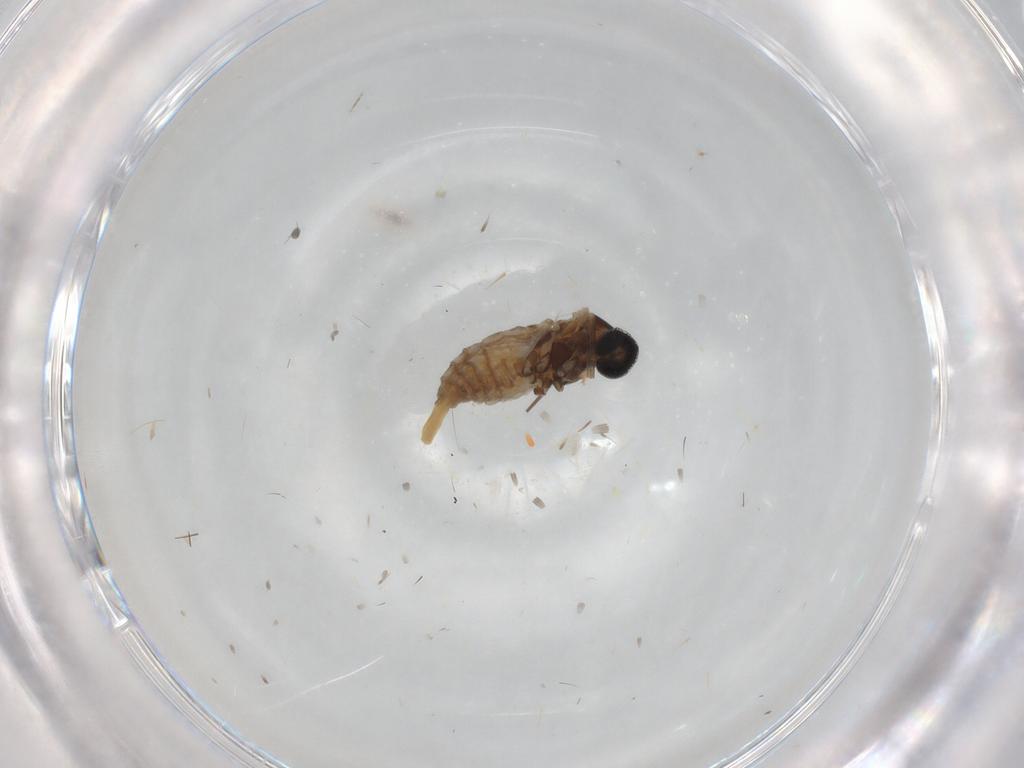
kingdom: Animalia
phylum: Arthropoda
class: Insecta
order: Diptera
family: Cecidomyiidae
